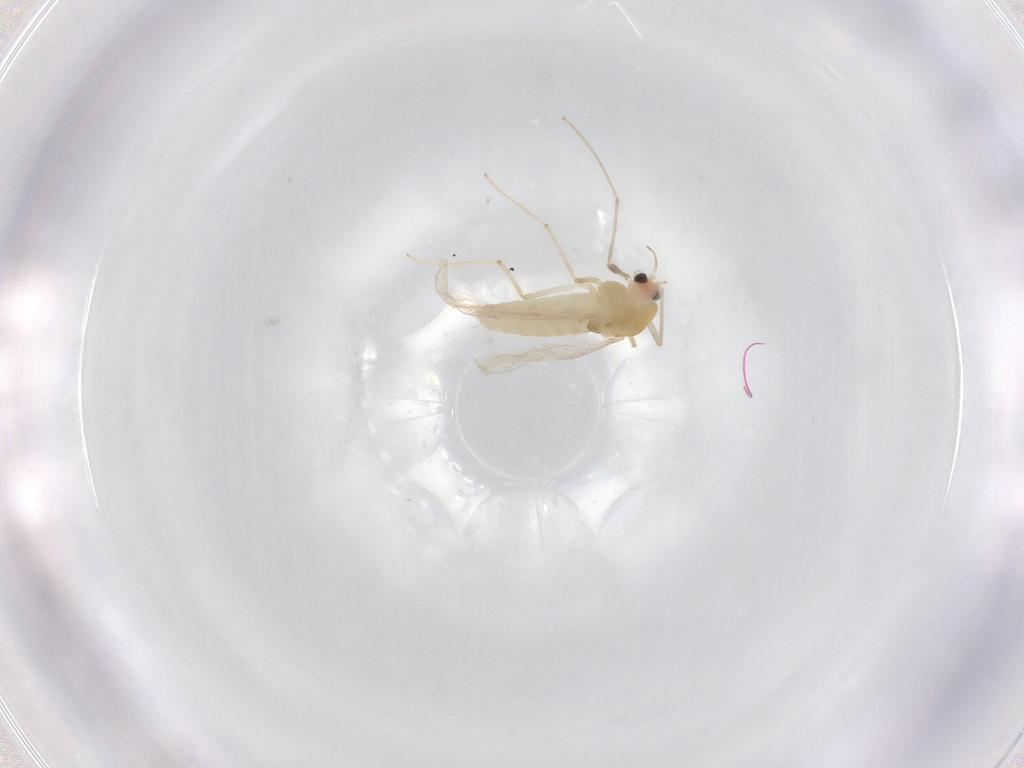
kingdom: Animalia
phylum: Arthropoda
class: Insecta
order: Diptera
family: Chironomidae
